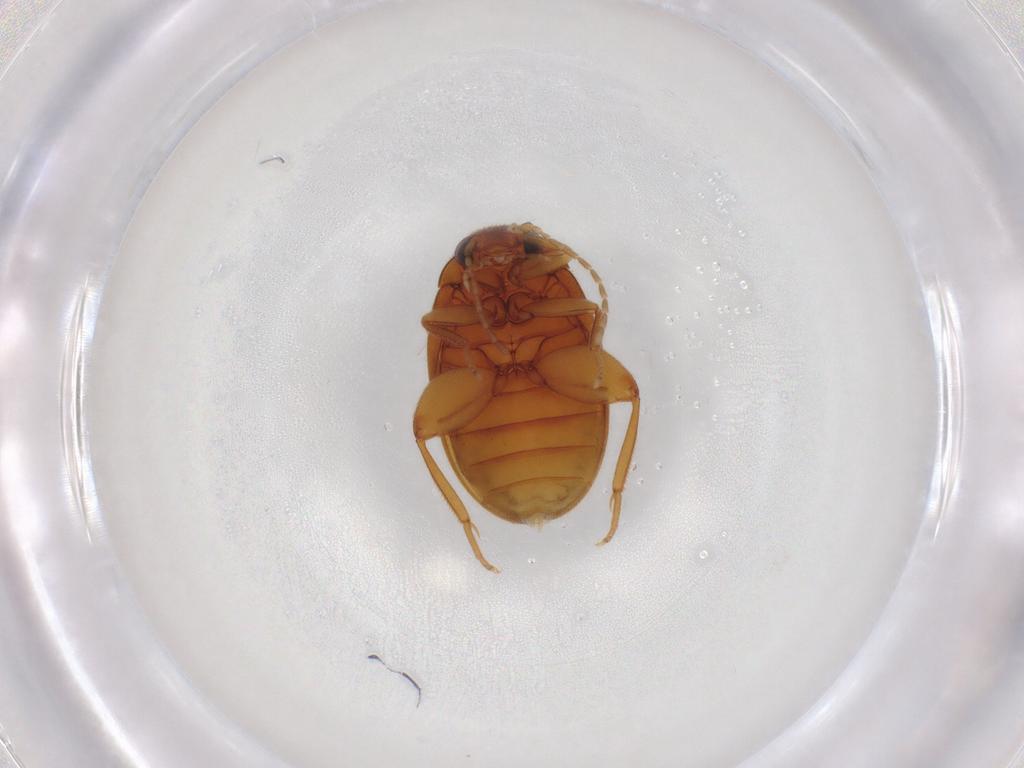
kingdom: Animalia
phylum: Arthropoda
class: Insecta
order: Coleoptera
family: Scirtidae
